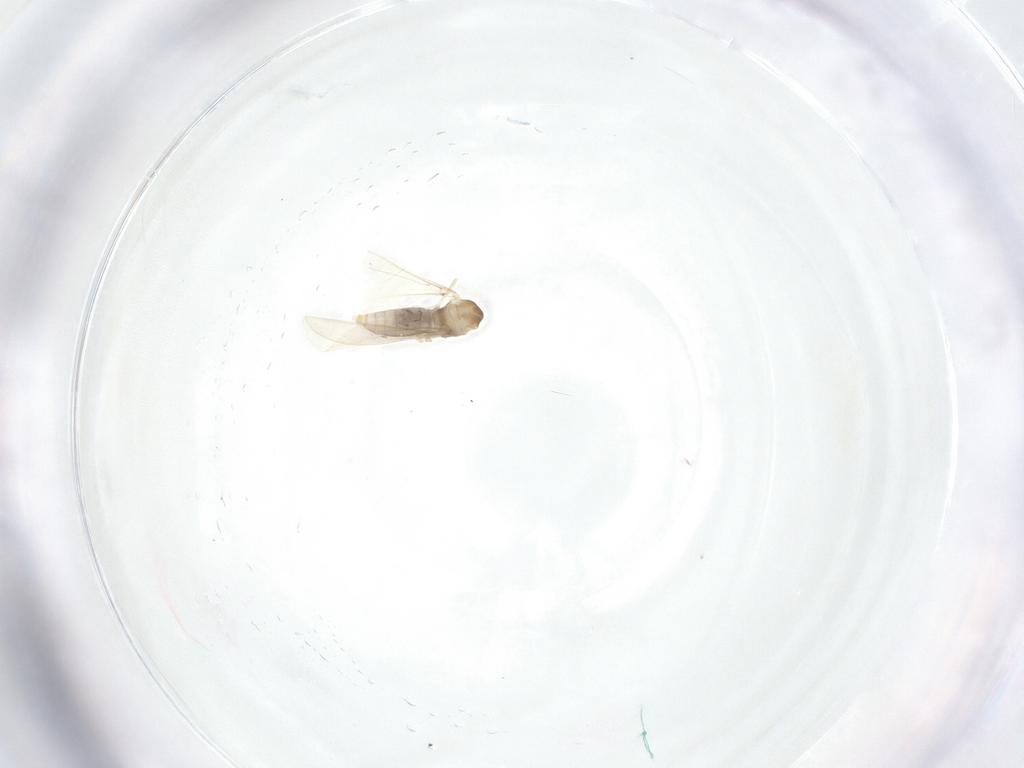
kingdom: Animalia
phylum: Arthropoda
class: Insecta
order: Diptera
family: Cecidomyiidae
